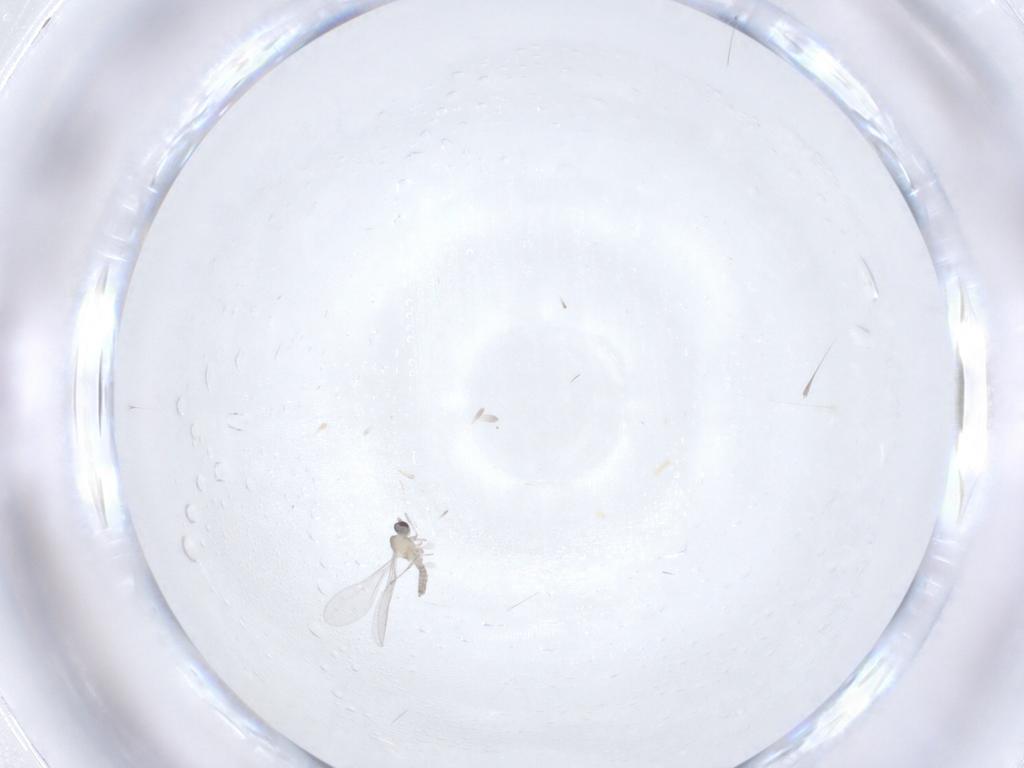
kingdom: Animalia
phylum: Arthropoda
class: Insecta
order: Diptera
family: Cecidomyiidae
